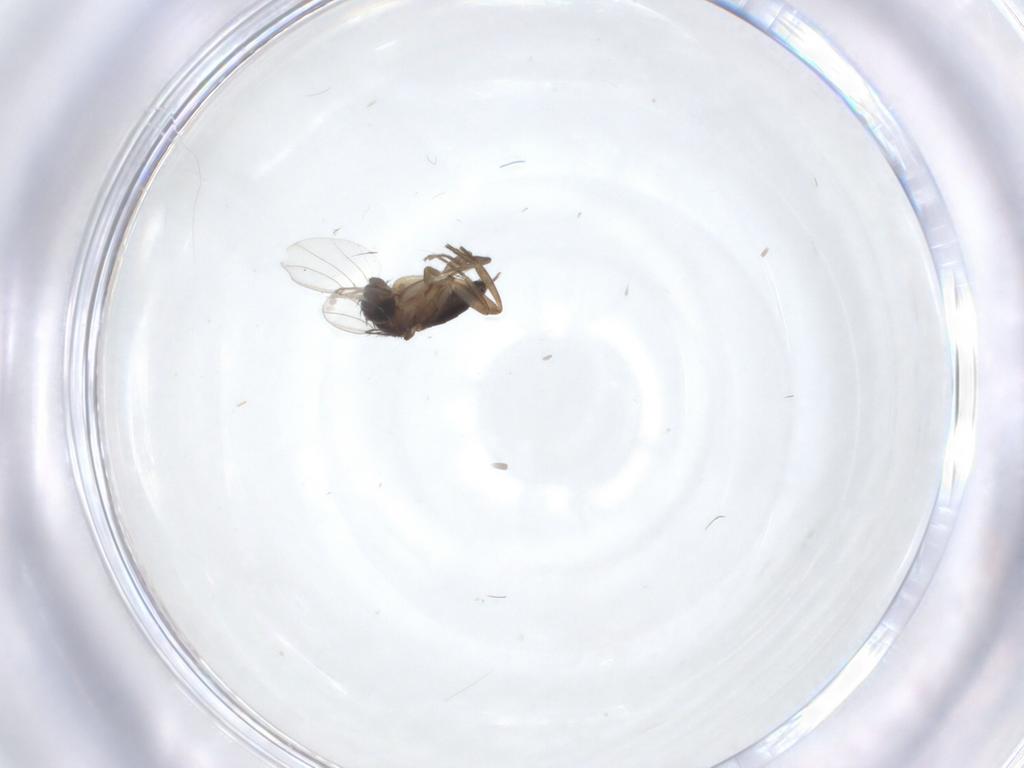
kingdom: Animalia
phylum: Arthropoda
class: Insecta
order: Diptera
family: Phoridae
